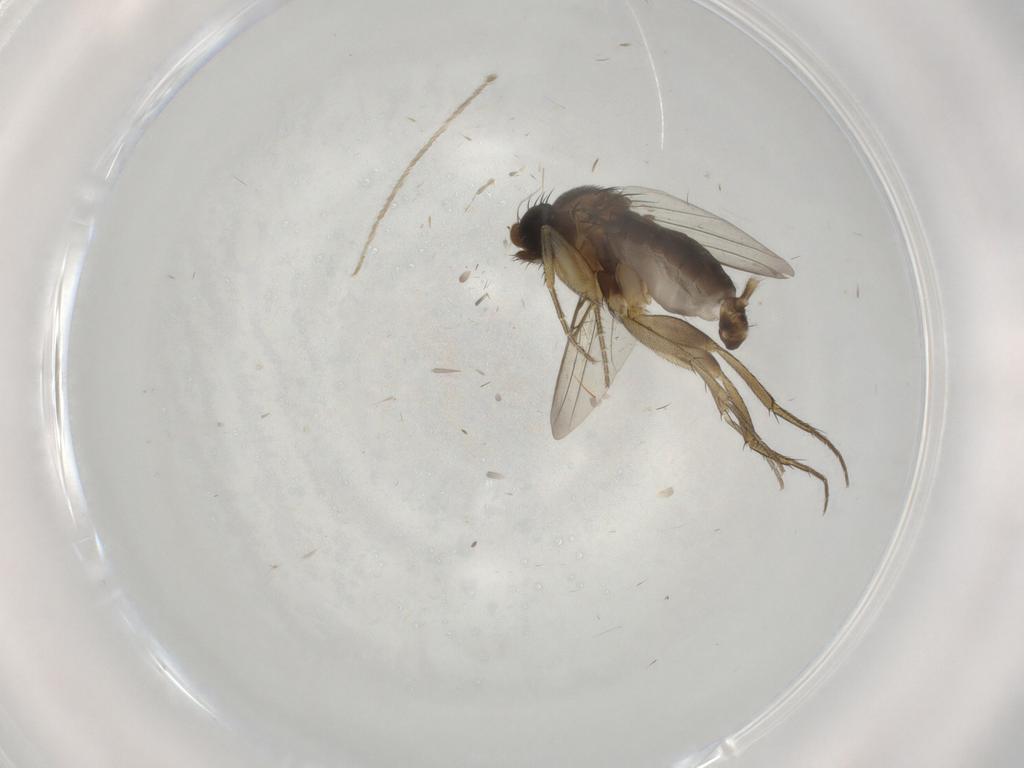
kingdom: Animalia
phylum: Arthropoda
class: Insecta
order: Diptera
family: Phoridae
